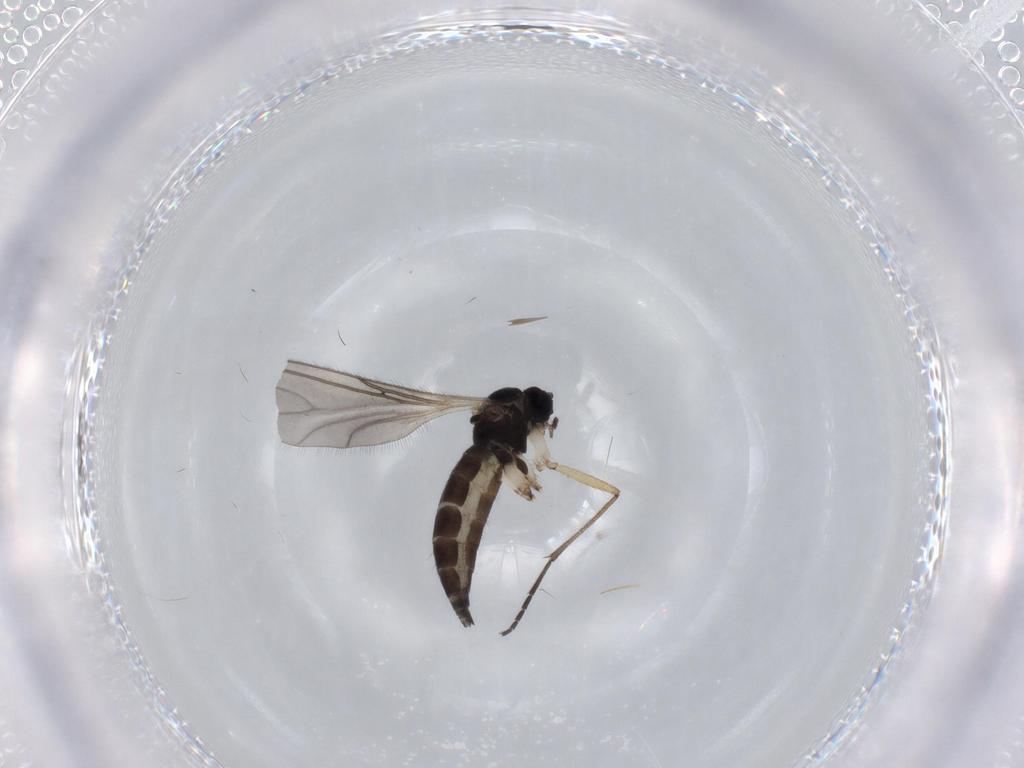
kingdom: Animalia
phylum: Arthropoda
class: Insecta
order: Diptera
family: Sciaridae
